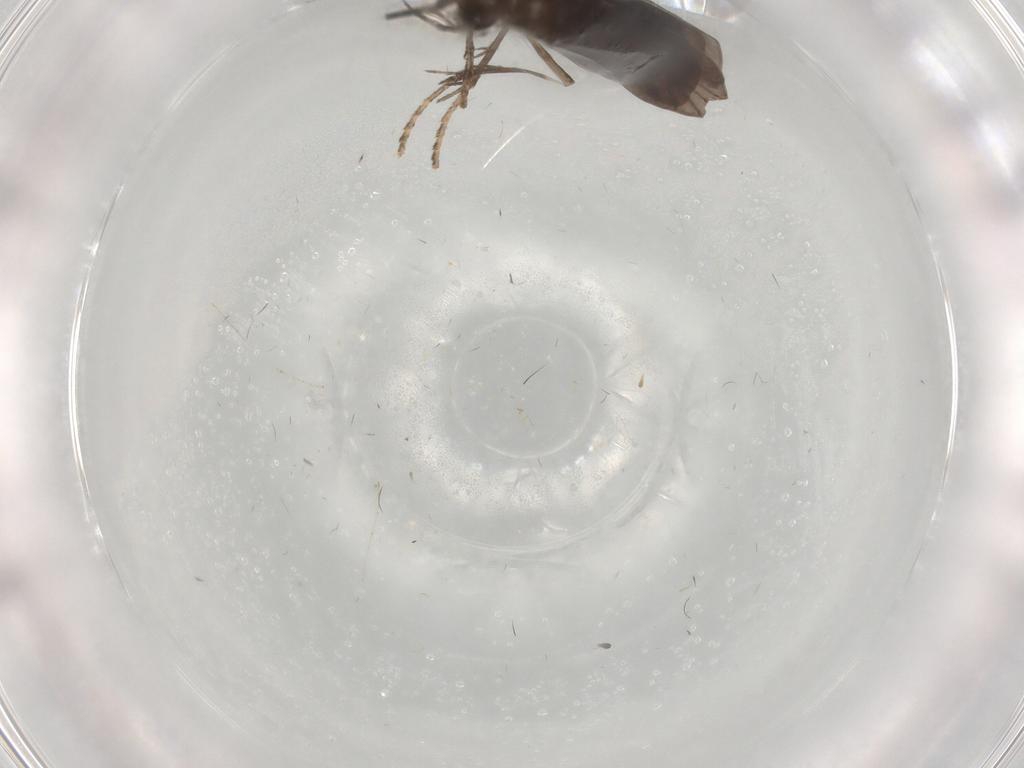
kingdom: Animalia
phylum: Arthropoda
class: Insecta
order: Trichoptera
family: Xiphocentronidae
